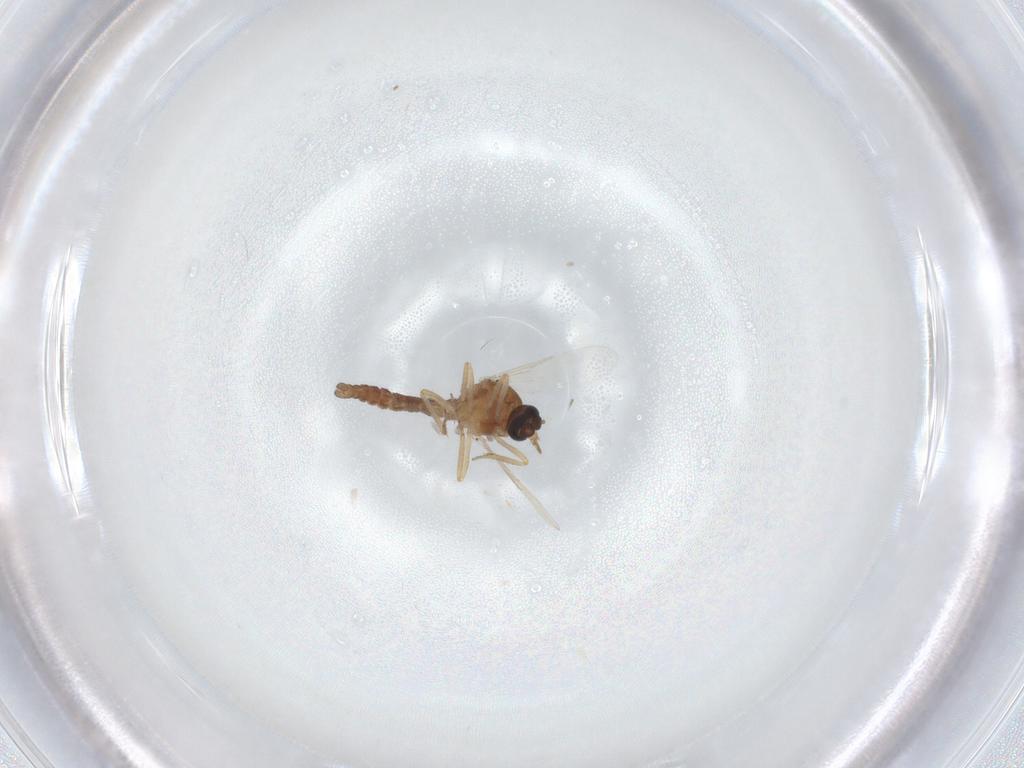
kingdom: Animalia
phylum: Arthropoda
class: Insecta
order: Diptera
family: Ceratopogonidae
